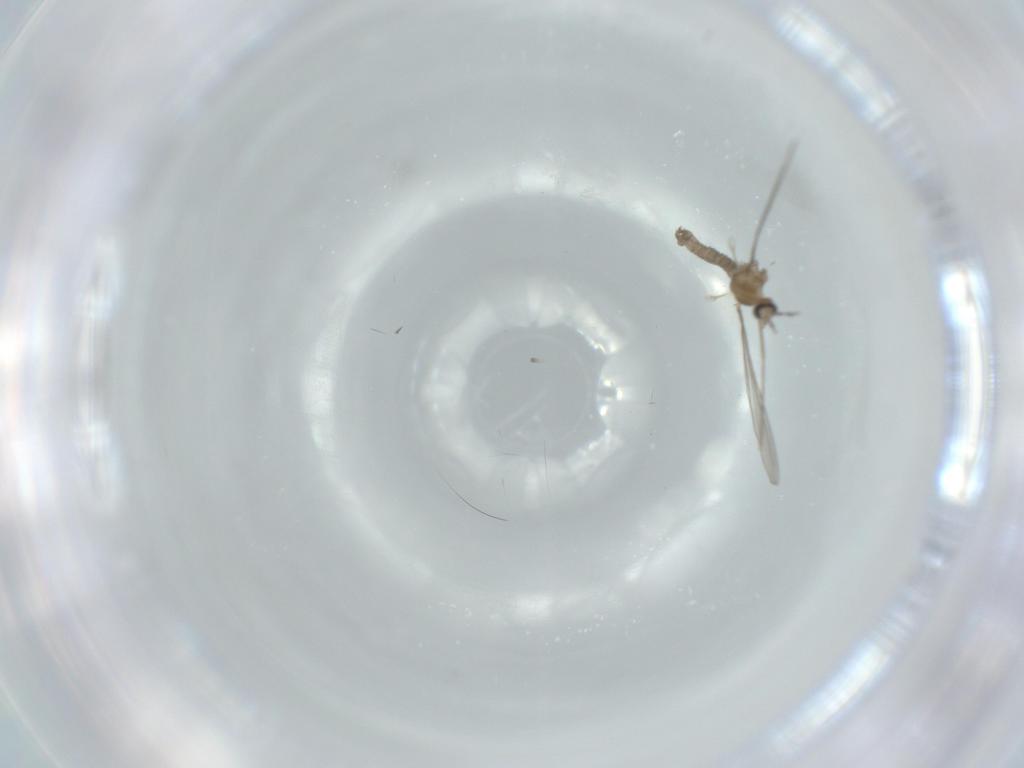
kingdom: Animalia
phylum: Arthropoda
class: Insecta
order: Diptera
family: Cecidomyiidae
